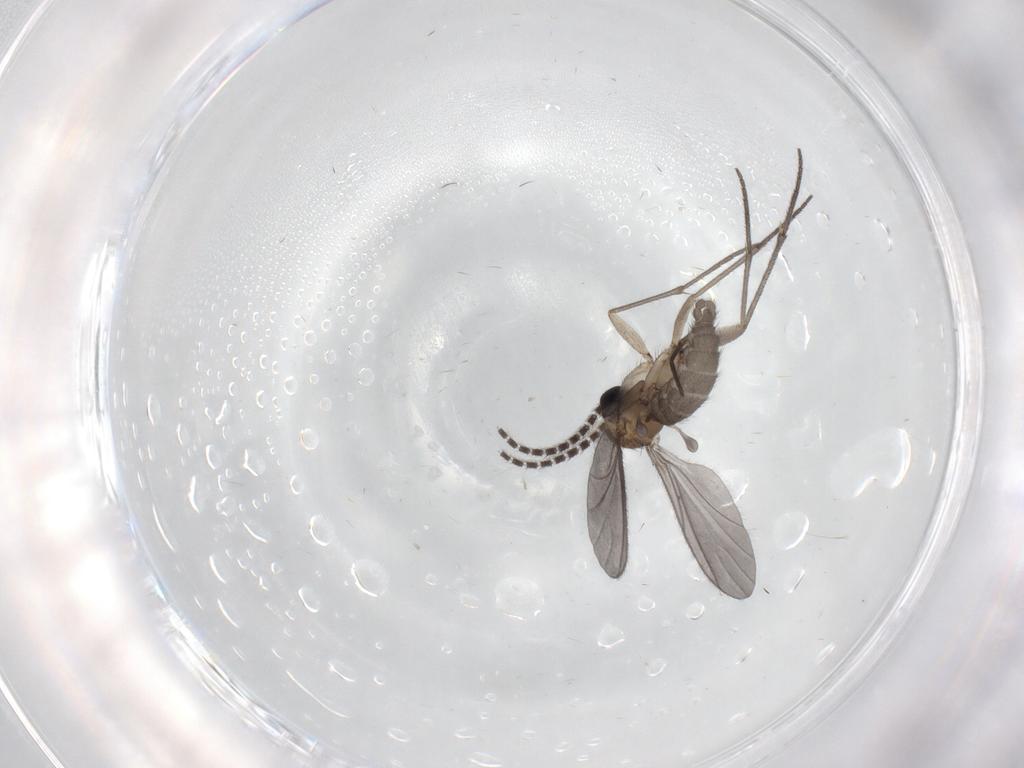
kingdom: Animalia
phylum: Arthropoda
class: Insecta
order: Diptera
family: Sciaridae
